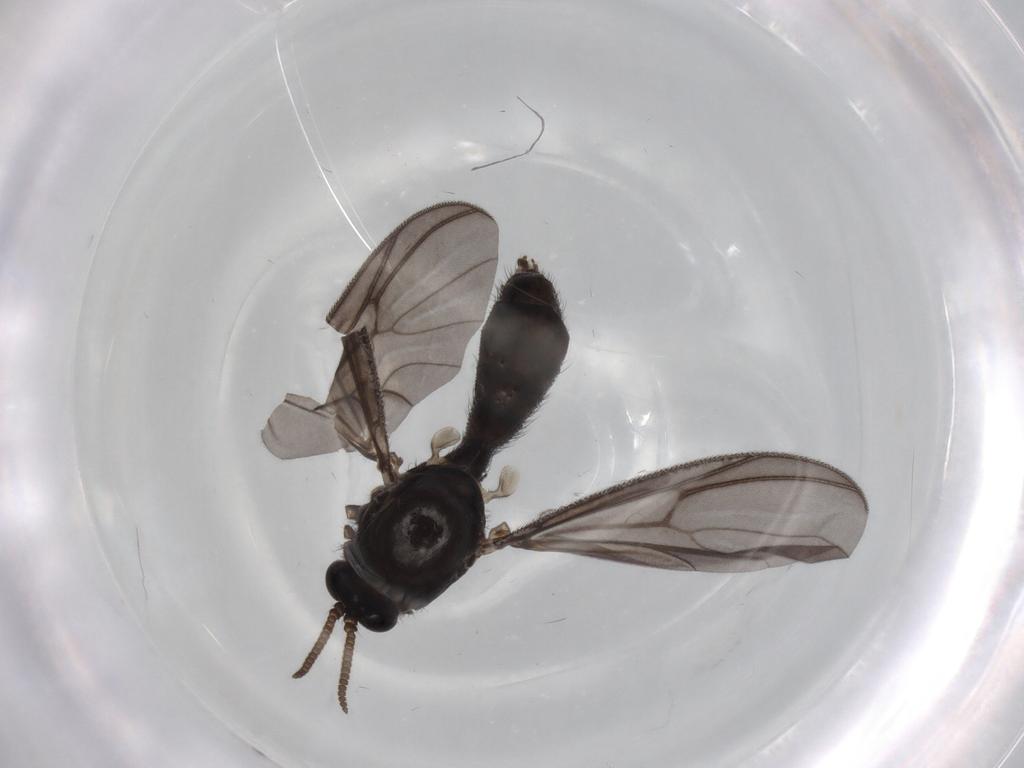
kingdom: Animalia
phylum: Arthropoda
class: Insecta
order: Diptera
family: Phoridae
